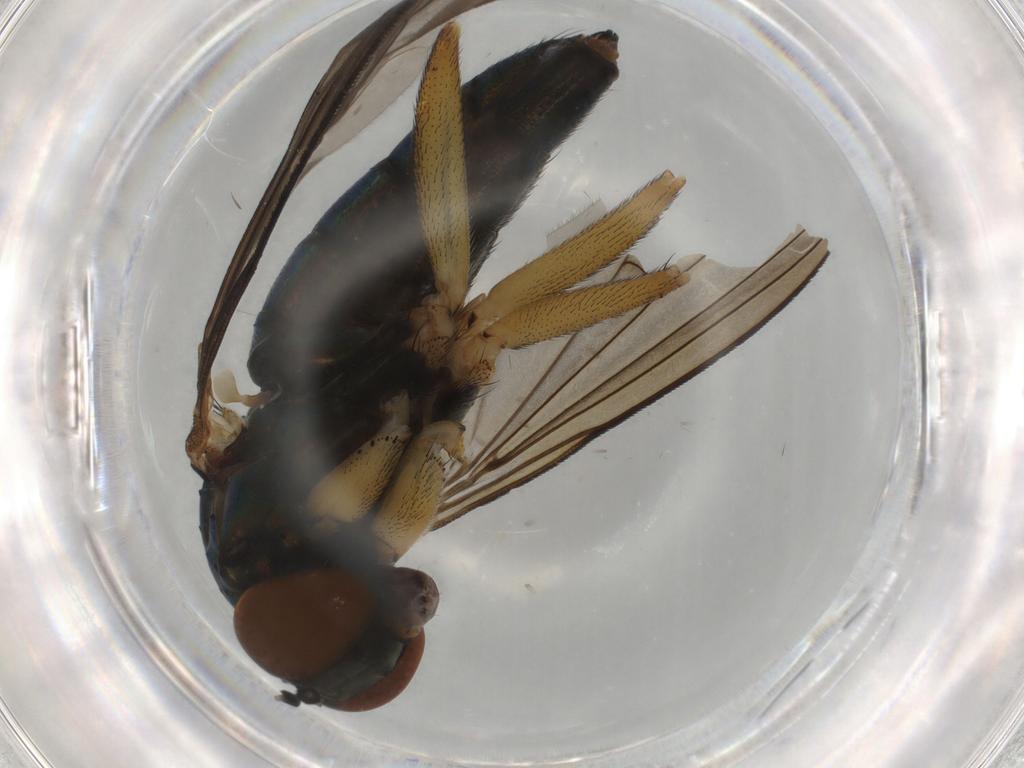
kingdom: Animalia
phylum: Arthropoda
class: Insecta
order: Diptera
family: Dolichopodidae
